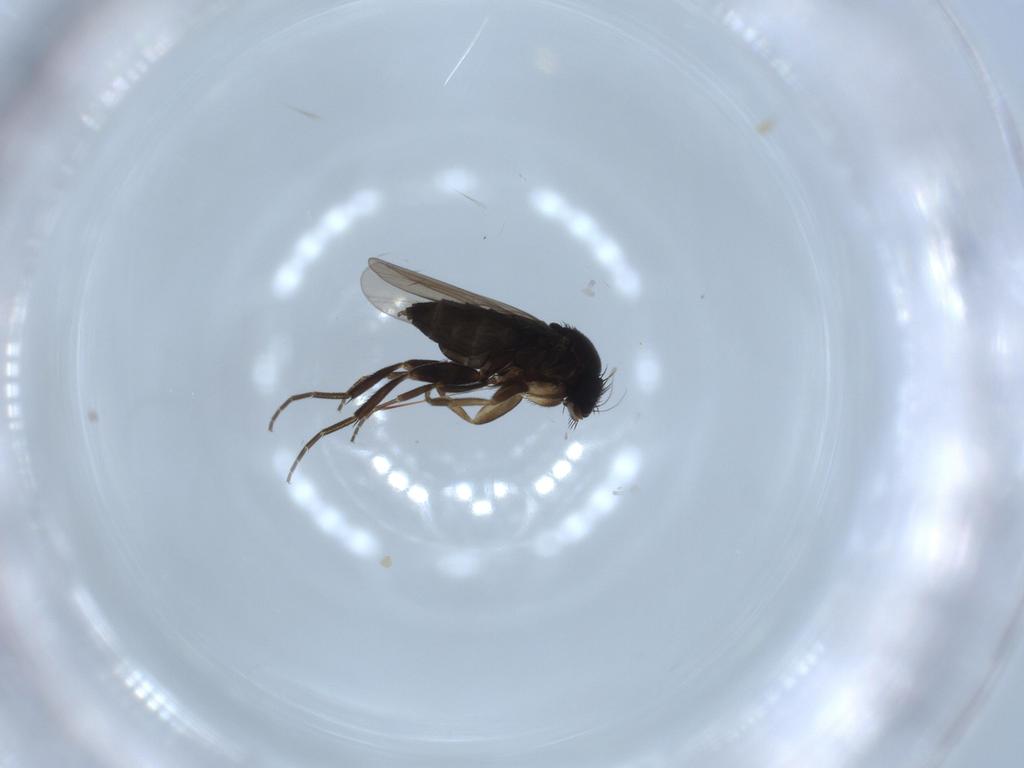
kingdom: Animalia
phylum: Arthropoda
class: Insecta
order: Diptera
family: Phoridae
